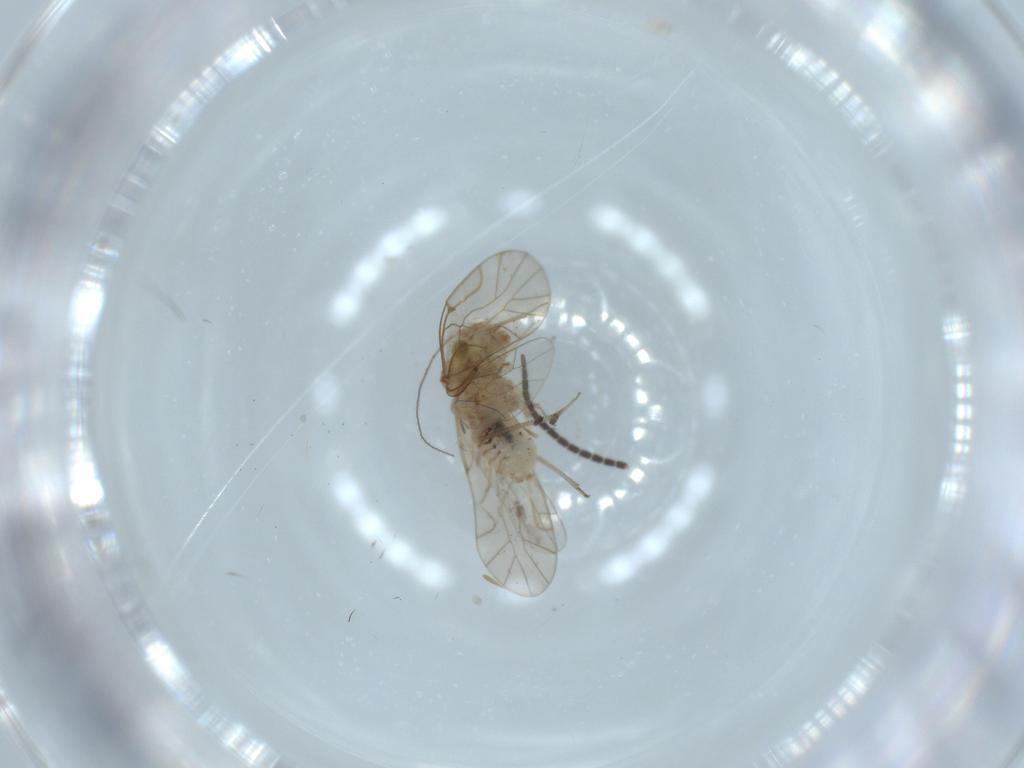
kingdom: Animalia
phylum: Arthropoda
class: Insecta
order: Psocodea
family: Lachesillidae
